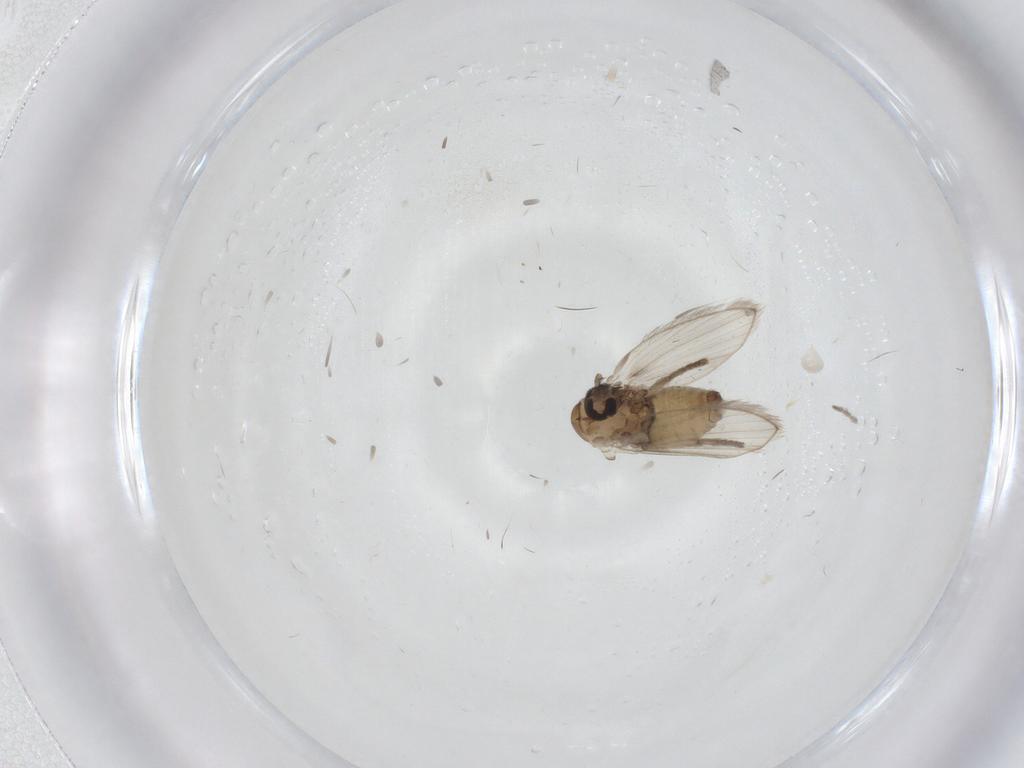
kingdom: Animalia
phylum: Arthropoda
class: Insecta
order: Diptera
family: Psychodidae
